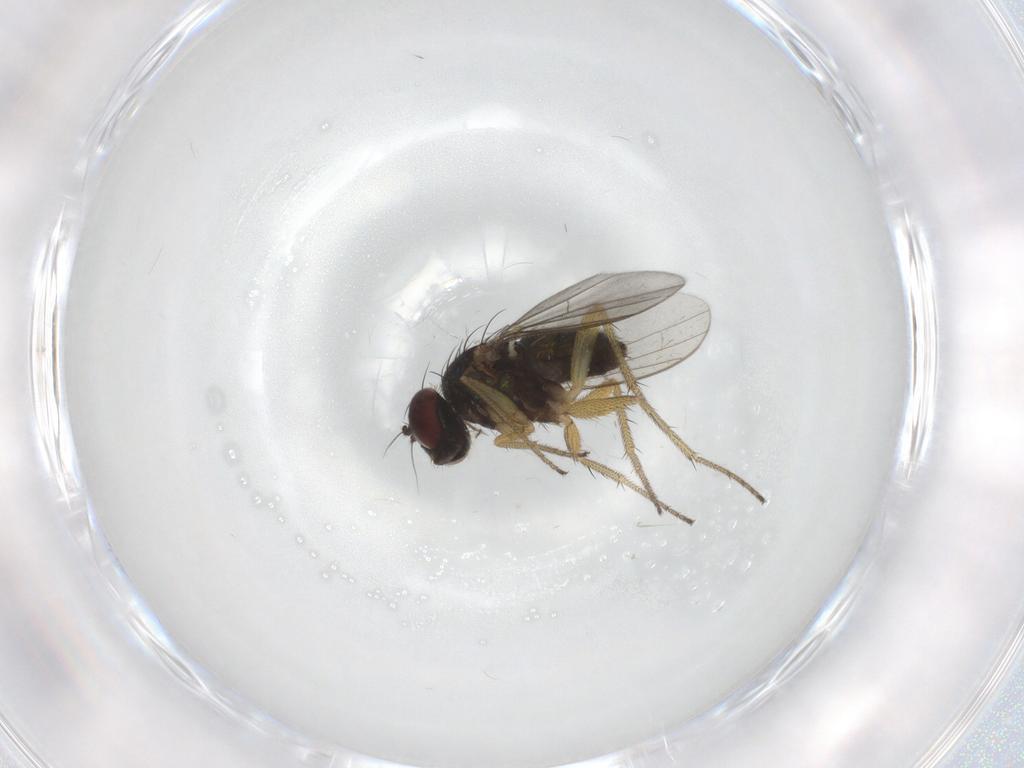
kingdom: Animalia
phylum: Arthropoda
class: Insecta
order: Diptera
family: Dolichopodidae
